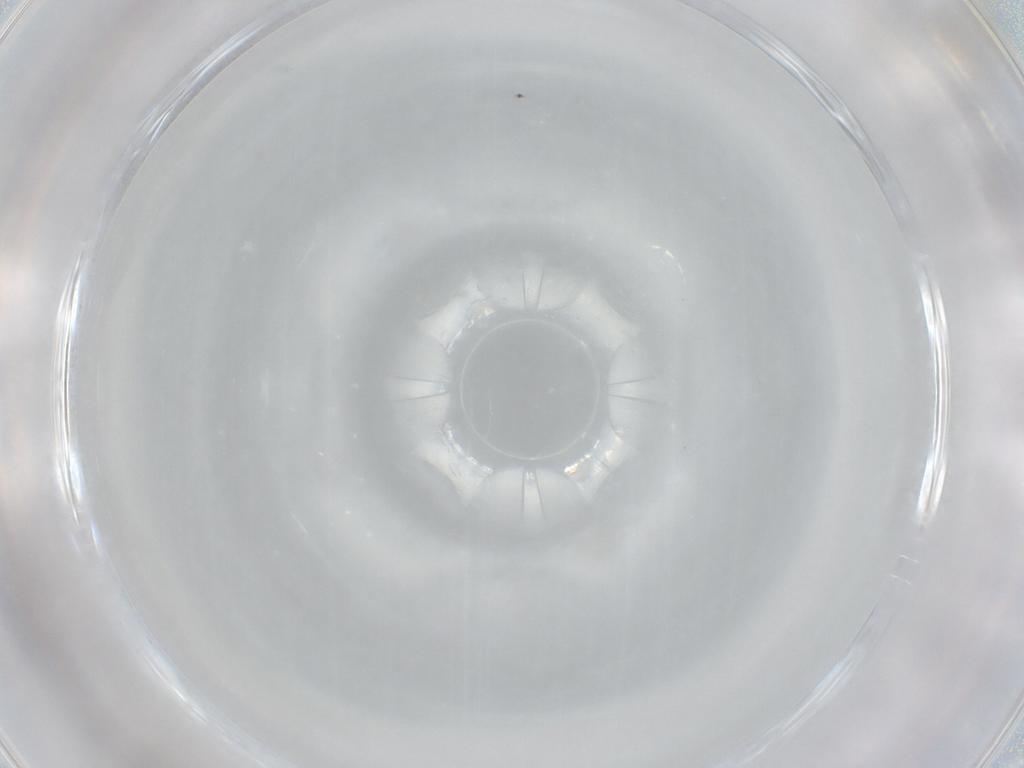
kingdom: Animalia
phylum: Arthropoda
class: Insecta
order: Diptera
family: Cecidomyiidae
